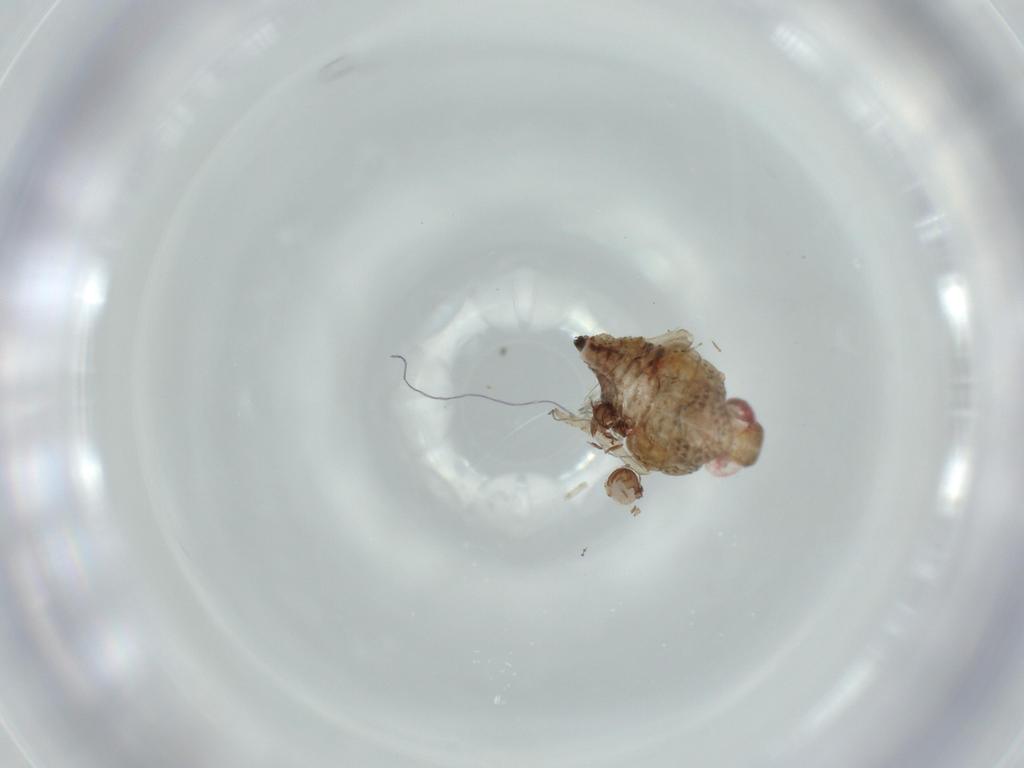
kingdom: Animalia
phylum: Arthropoda
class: Insecta
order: Hemiptera
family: Issidae
